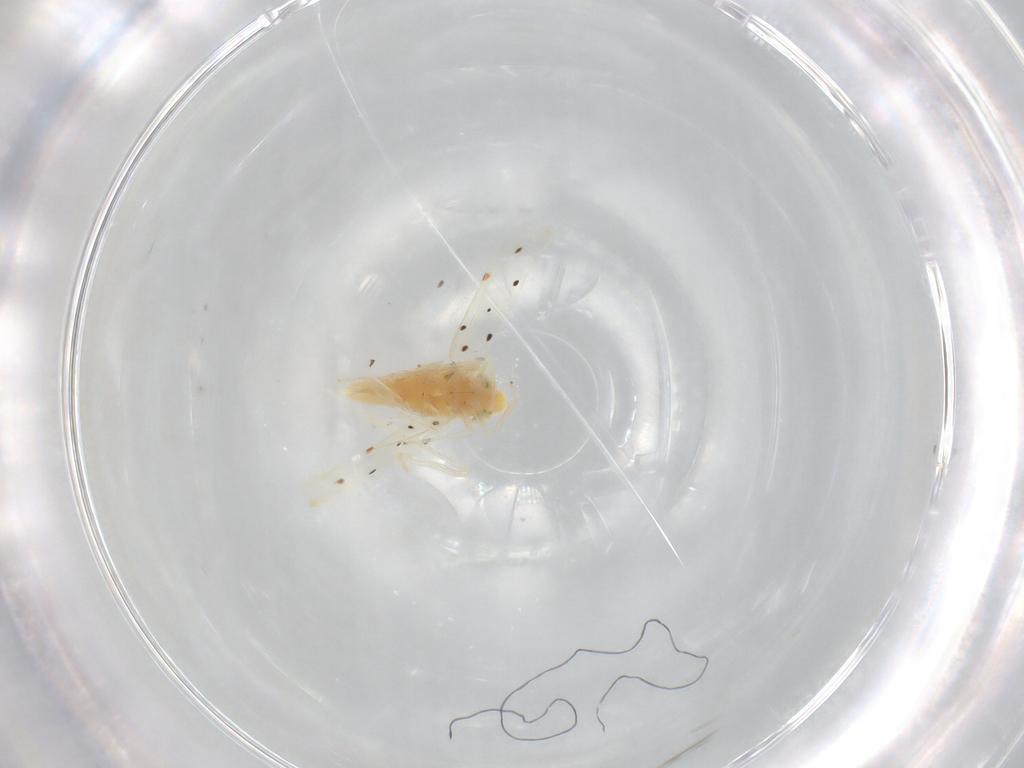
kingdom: Animalia
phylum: Arthropoda
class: Insecta
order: Hemiptera
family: Cicadellidae
